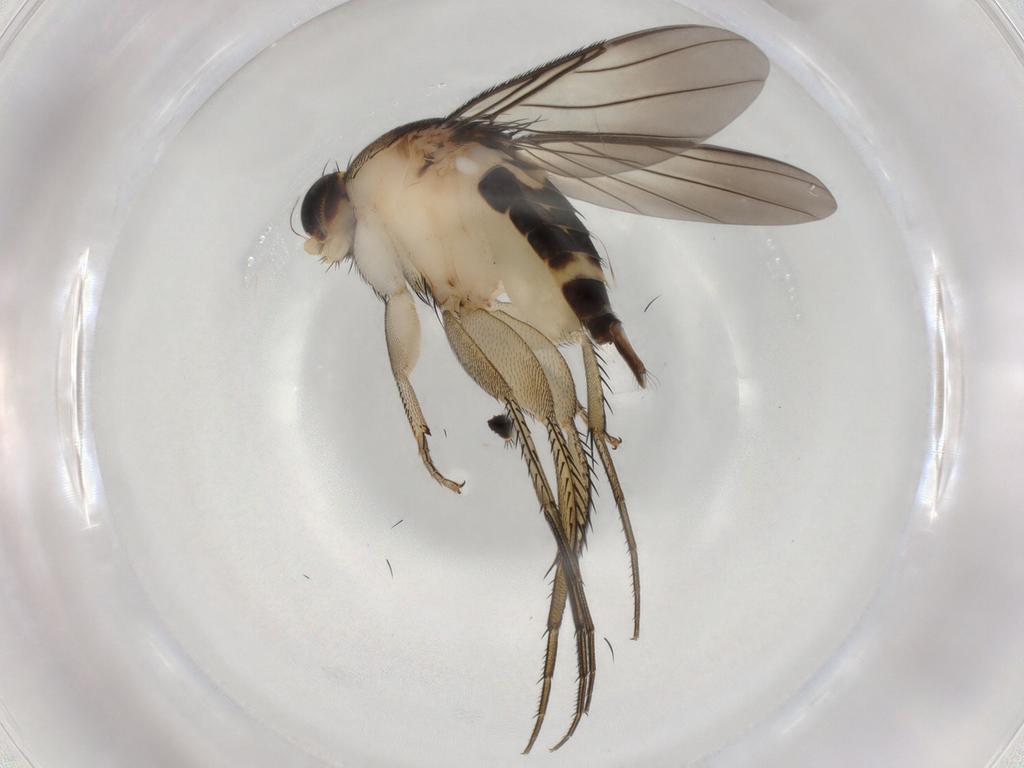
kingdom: Animalia
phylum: Arthropoda
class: Insecta
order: Diptera
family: Phoridae
